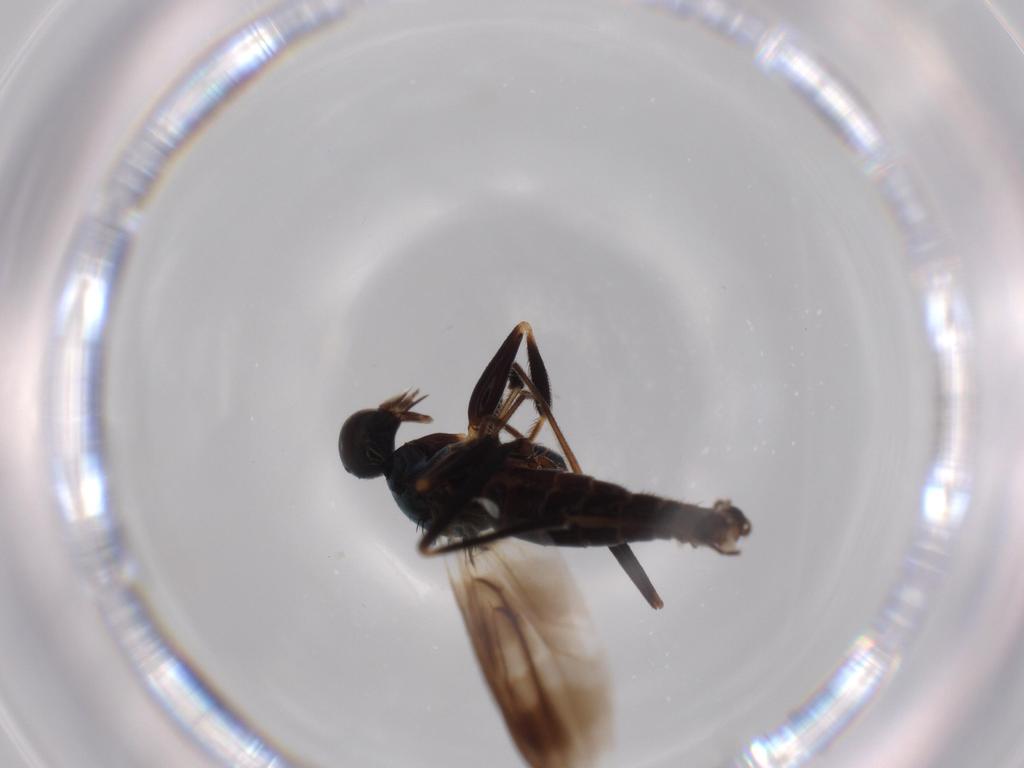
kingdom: Animalia
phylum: Arthropoda
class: Insecta
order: Diptera
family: Hybotidae
